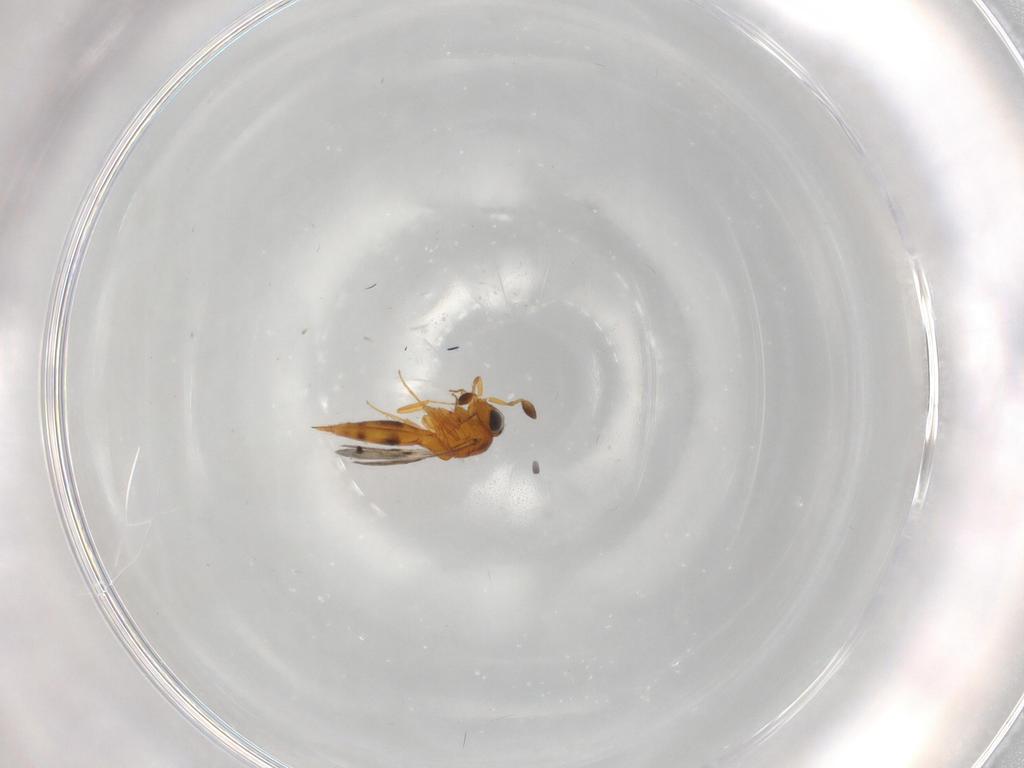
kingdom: Animalia
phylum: Arthropoda
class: Insecta
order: Hymenoptera
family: Scelionidae
